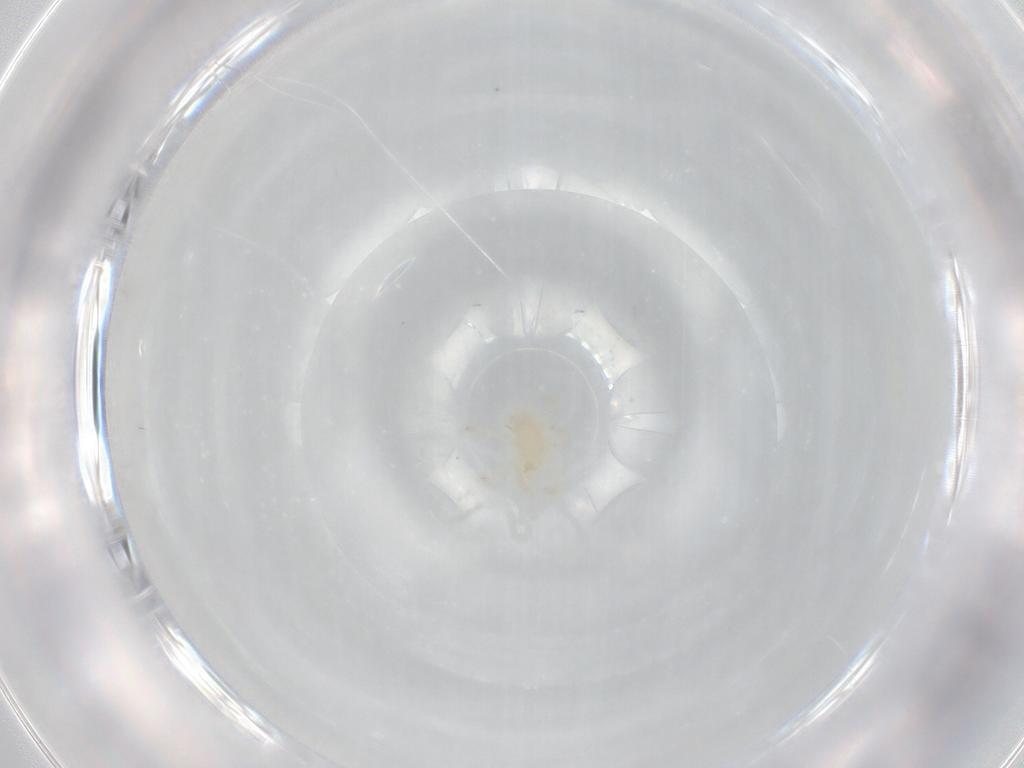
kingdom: Animalia
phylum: Arthropoda
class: Arachnida
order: Trombidiformes
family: Trombidiidae
